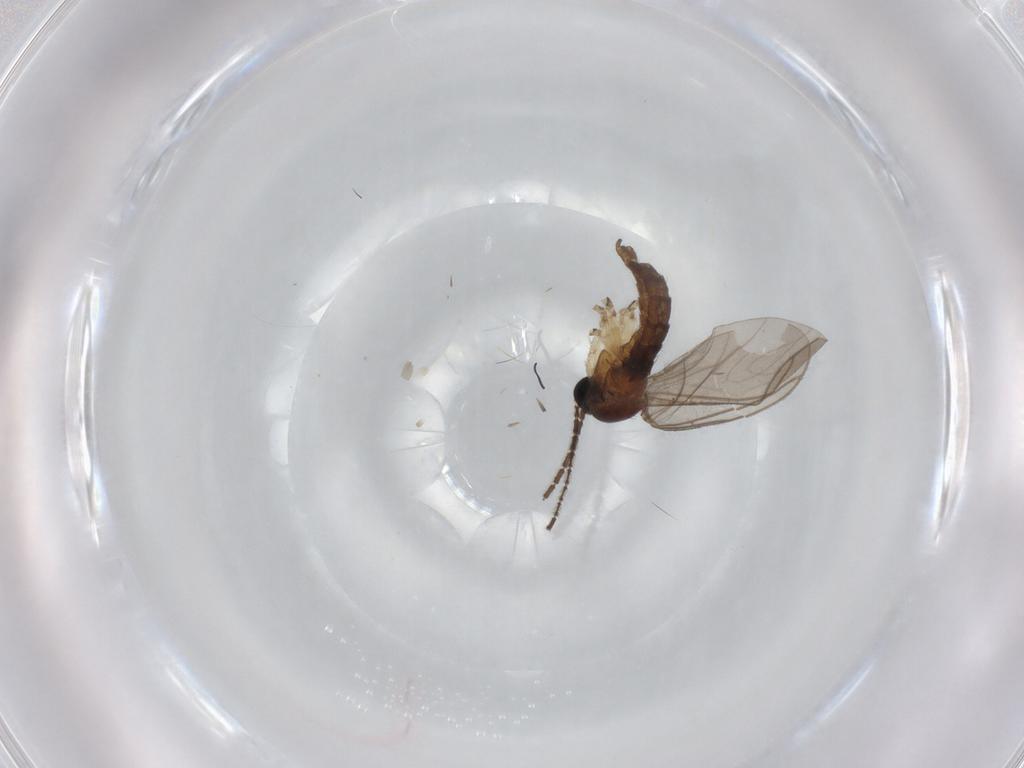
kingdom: Animalia
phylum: Arthropoda
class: Insecta
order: Diptera
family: Sciaridae
